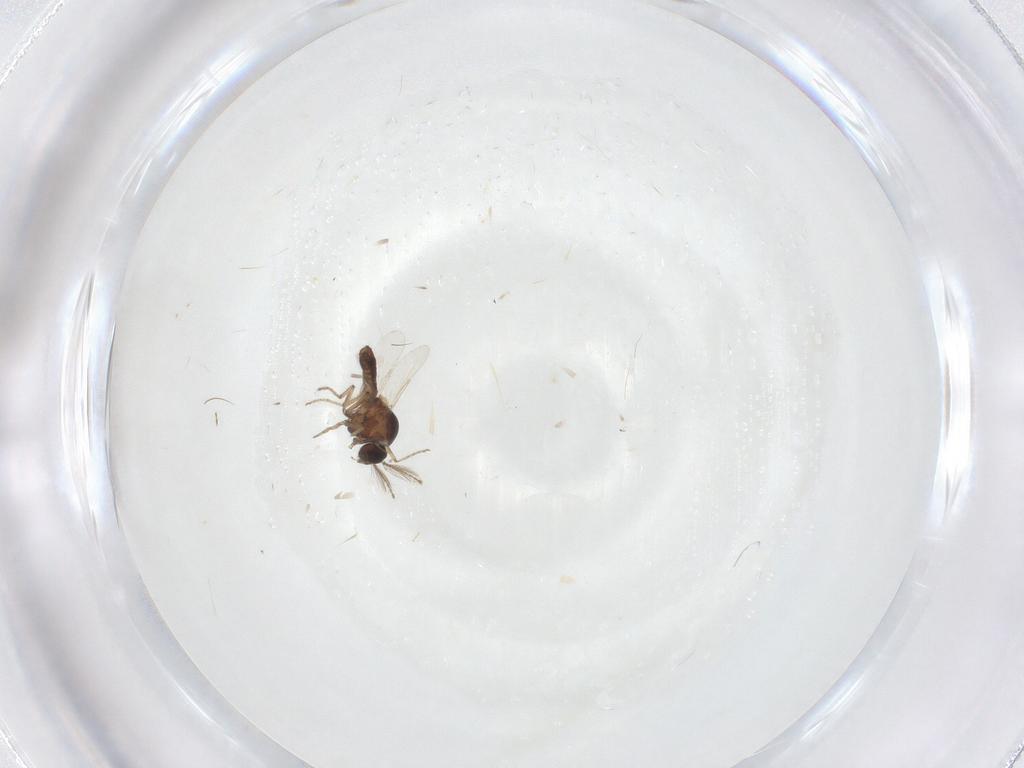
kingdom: Animalia
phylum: Arthropoda
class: Insecta
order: Diptera
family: Ceratopogonidae
